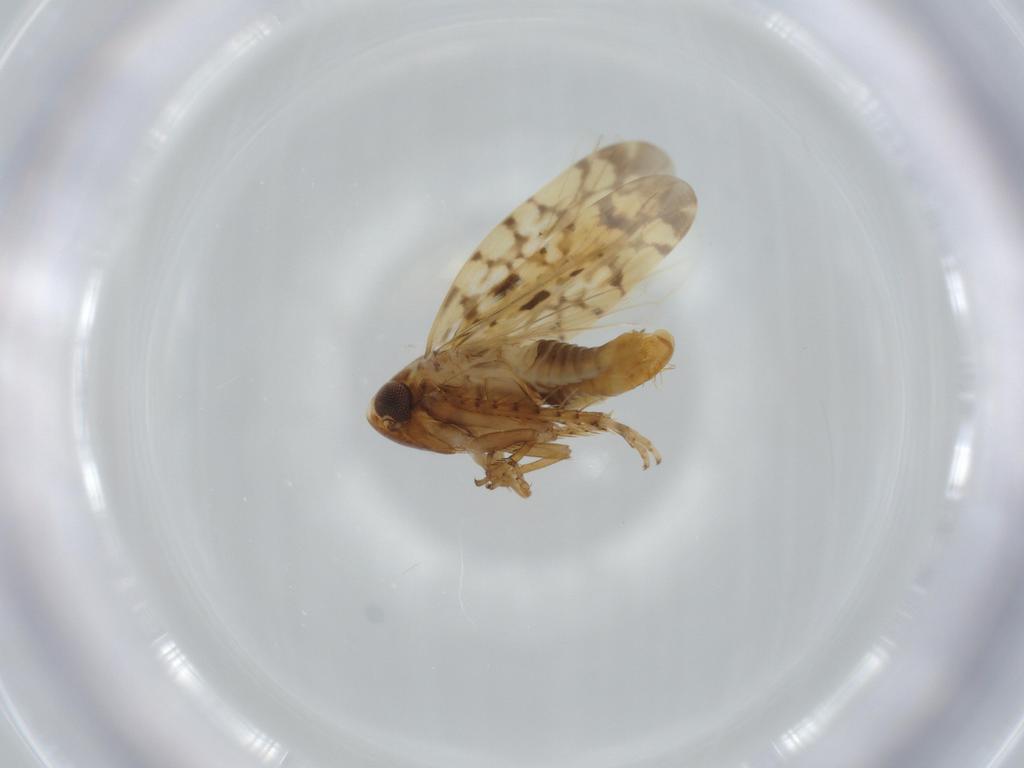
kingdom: Animalia
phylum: Arthropoda
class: Insecta
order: Hemiptera
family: Cicadellidae
